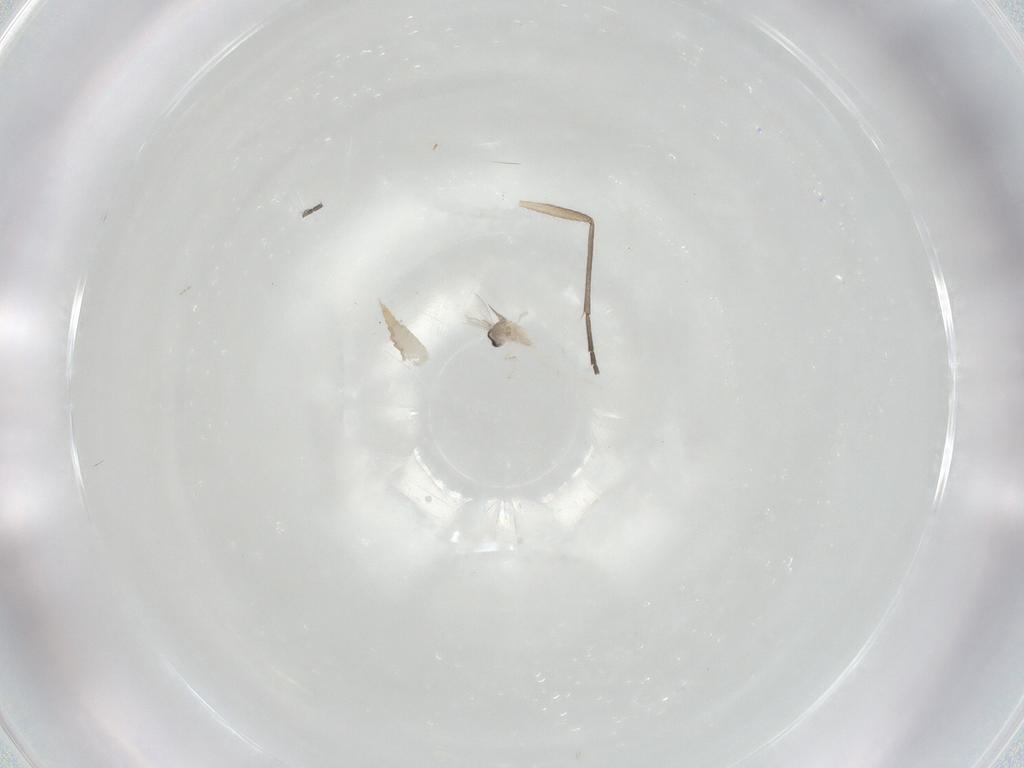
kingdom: Animalia
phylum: Arthropoda
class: Insecta
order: Diptera
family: Cecidomyiidae
